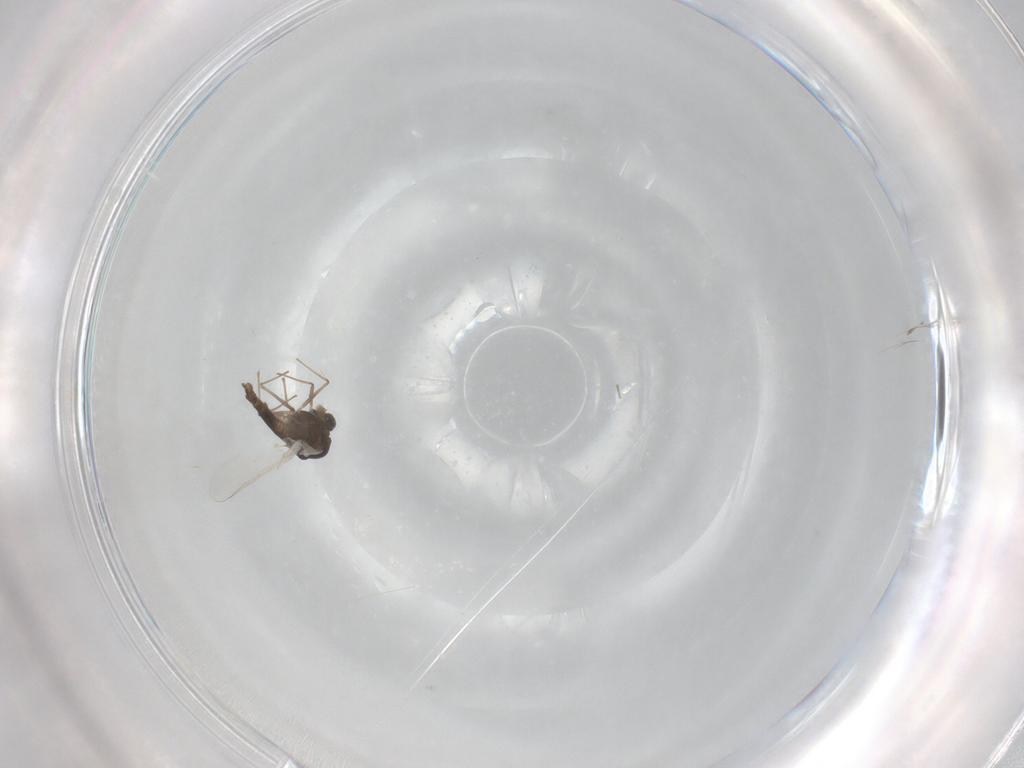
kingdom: Animalia
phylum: Arthropoda
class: Insecta
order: Diptera
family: Chironomidae
